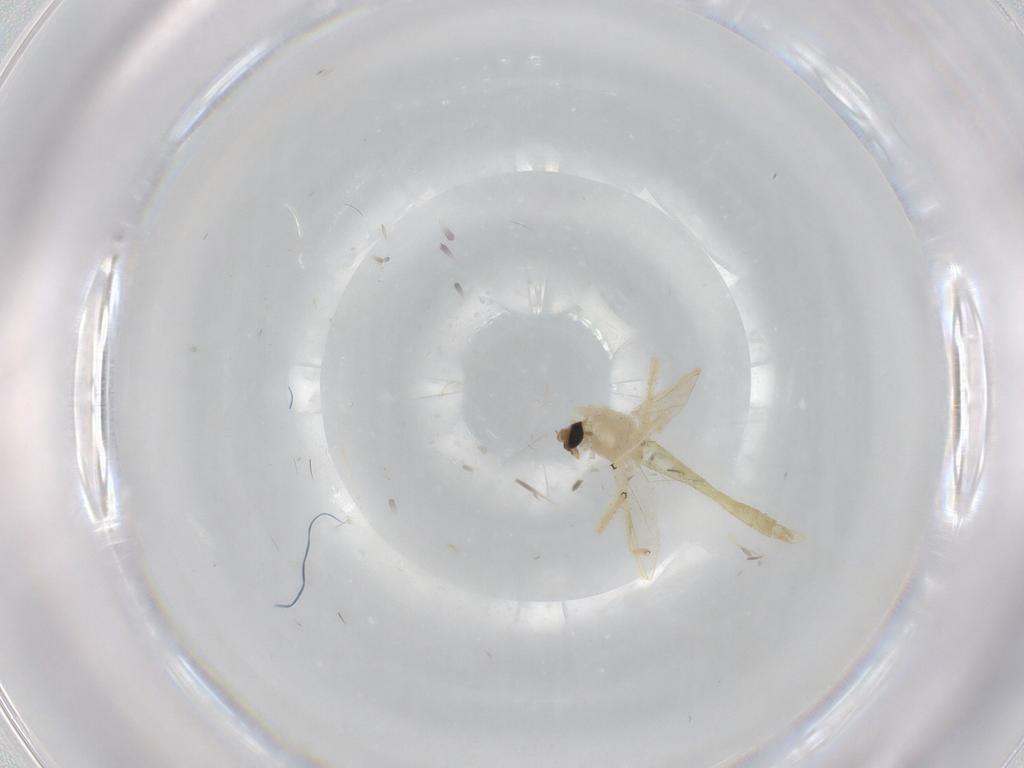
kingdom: Animalia
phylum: Arthropoda
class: Insecta
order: Diptera
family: Chironomidae
